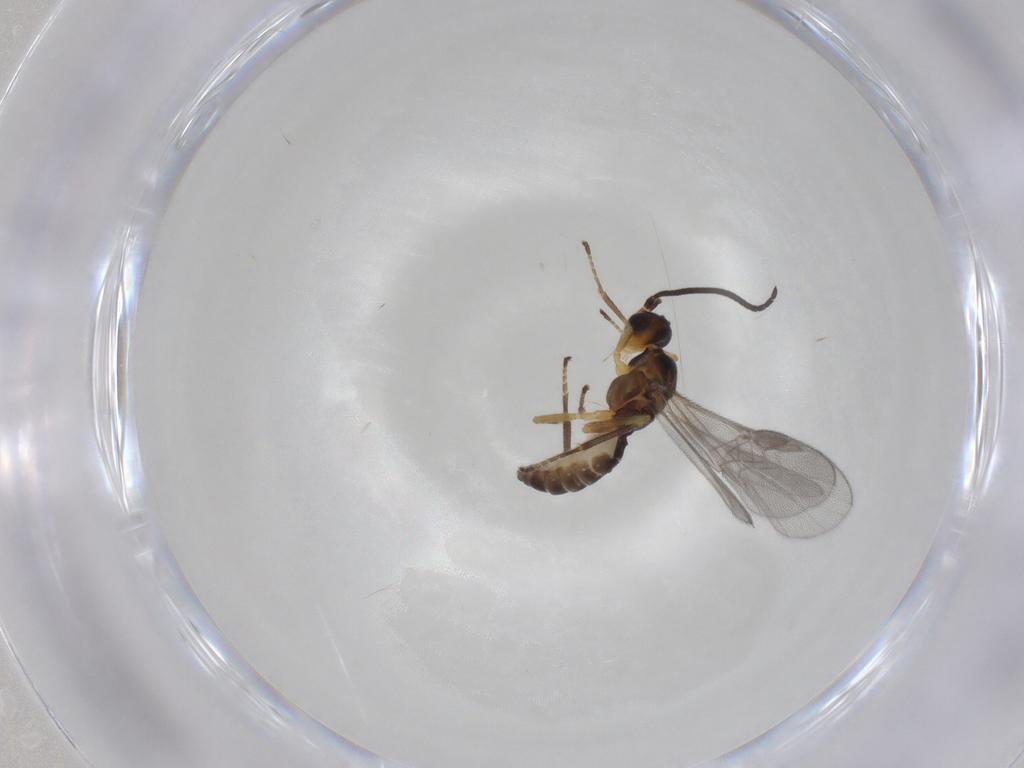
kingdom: Animalia
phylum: Arthropoda
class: Insecta
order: Hymenoptera
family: Braconidae
